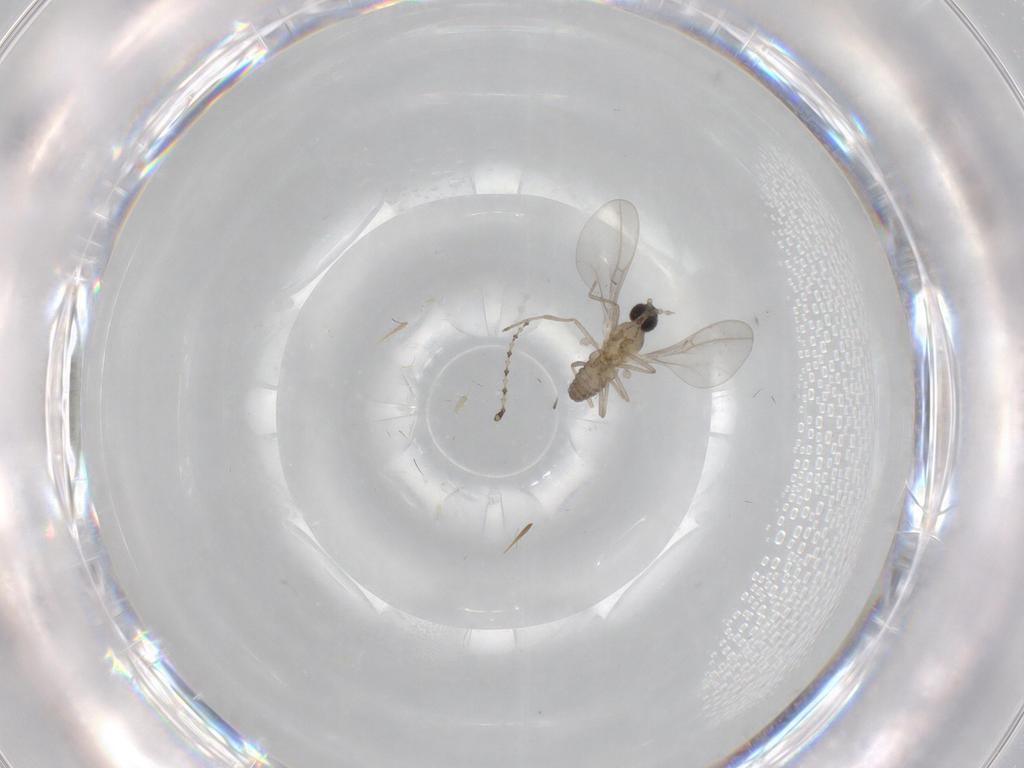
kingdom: Animalia
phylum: Arthropoda
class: Insecta
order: Diptera
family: Cecidomyiidae
